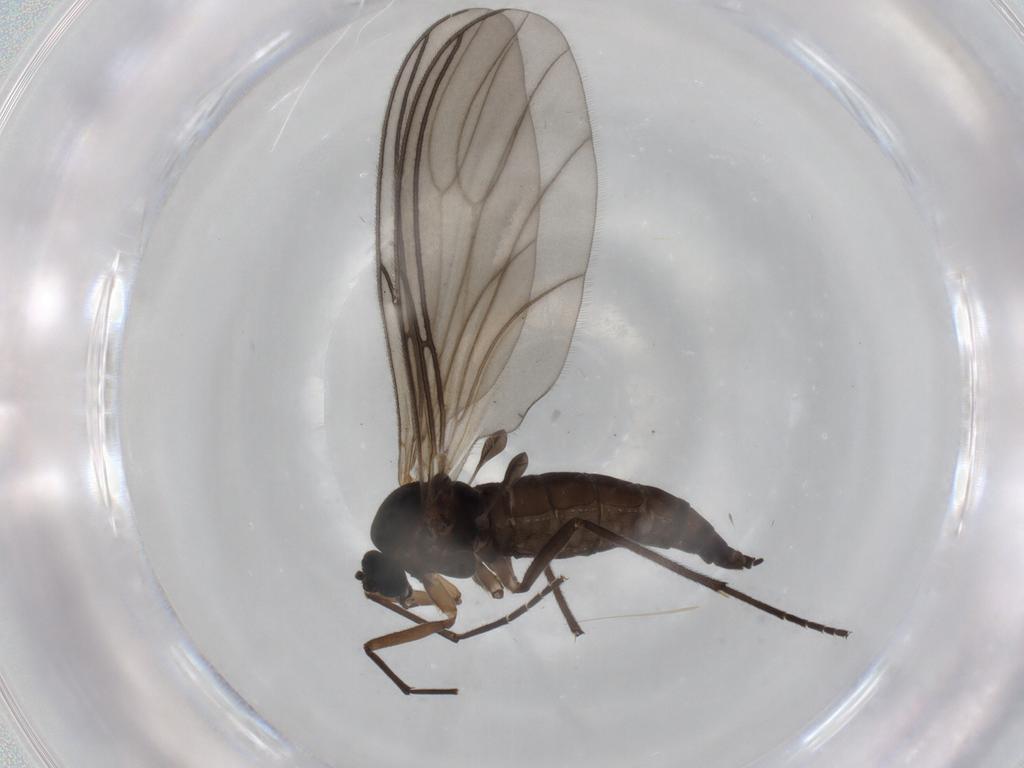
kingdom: Animalia
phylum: Arthropoda
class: Insecta
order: Diptera
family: Sciaridae
